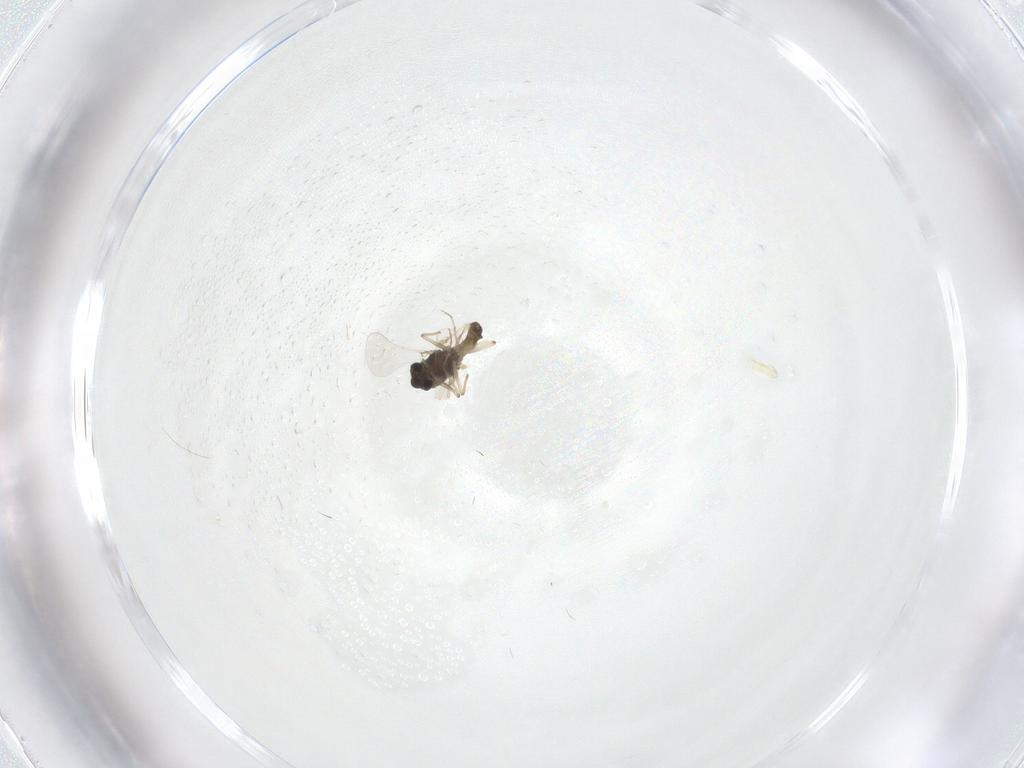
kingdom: Animalia
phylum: Arthropoda
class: Insecta
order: Diptera
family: Chironomidae
